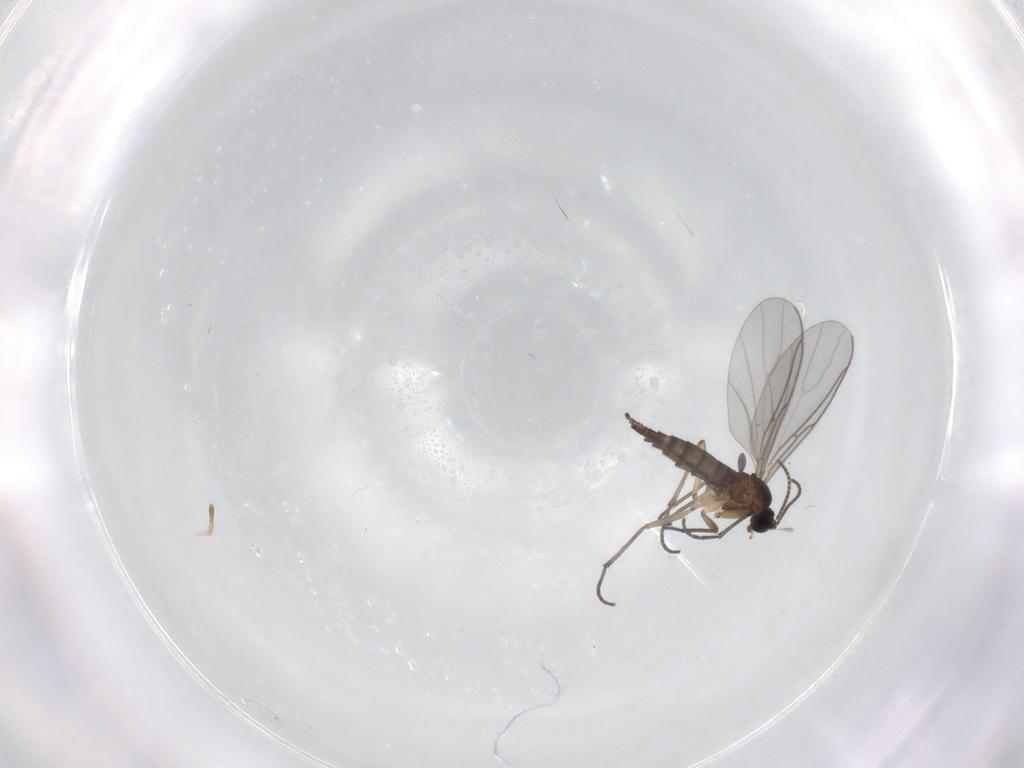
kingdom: Animalia
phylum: Arthropoda
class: Insecta
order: Diptera
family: Sciaridae
